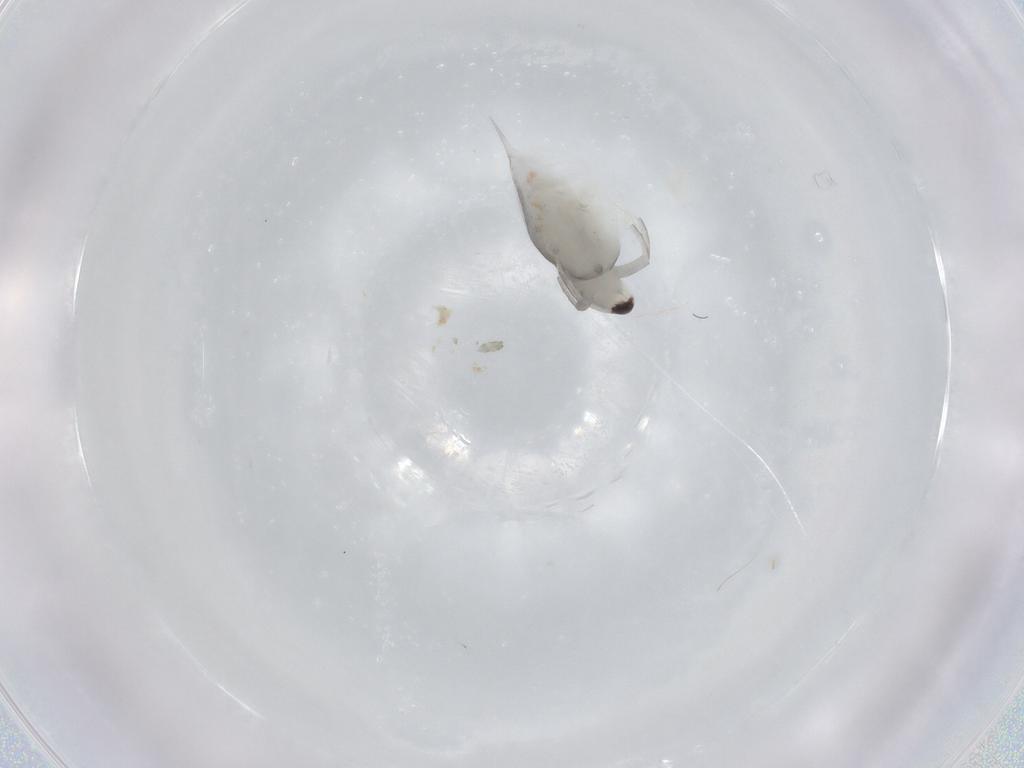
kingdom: Animalia
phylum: Arthropoda
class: Branchiopoda
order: Diplostraca
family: Daphniidae
